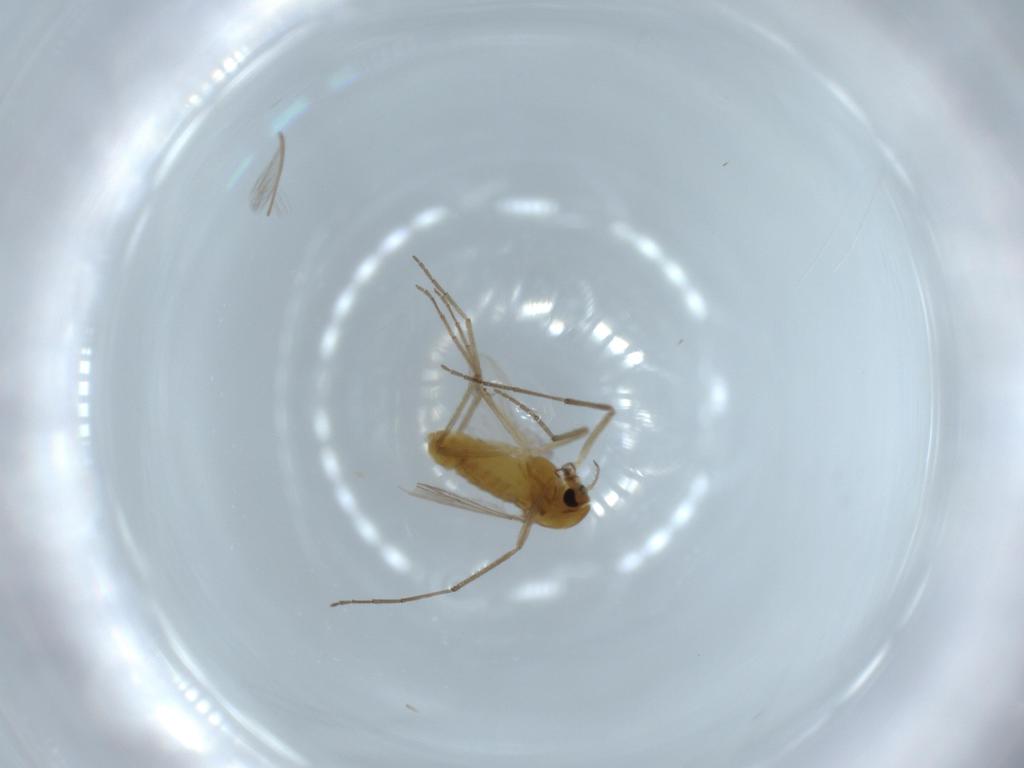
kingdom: Animalia
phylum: Arthropoda
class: Insecta
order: Diptera
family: Chironomidae
